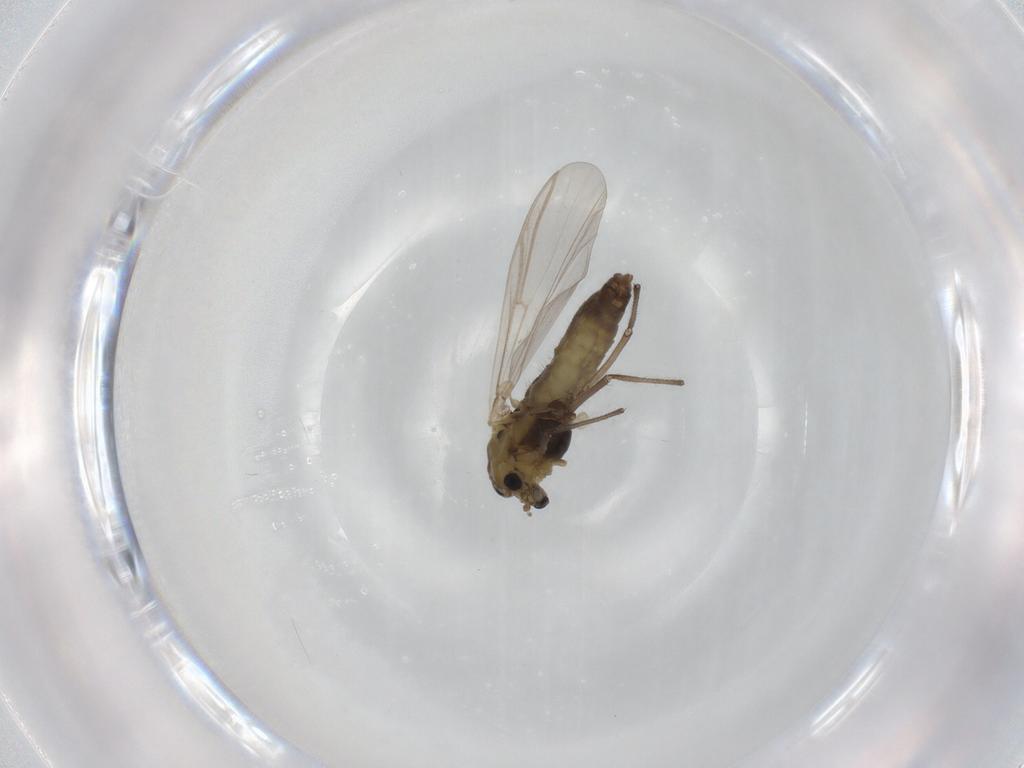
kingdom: Animalia
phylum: Arthropoda
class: Insecta
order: Diptera
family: Chironomidae
